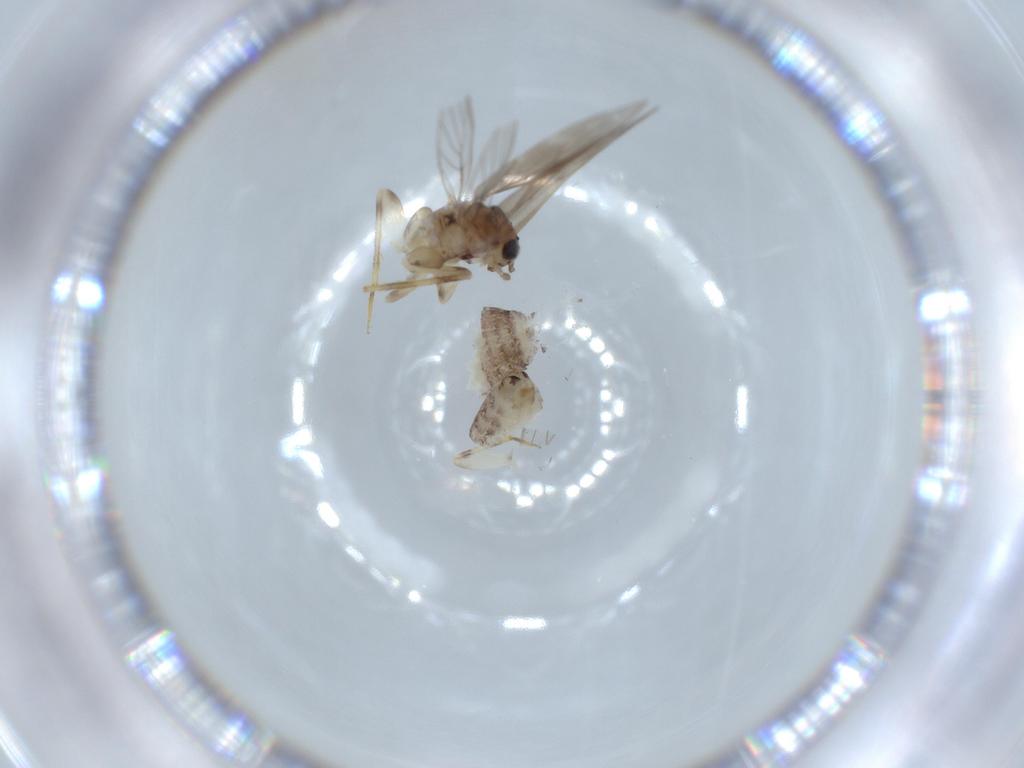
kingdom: Animalia
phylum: Arthropoda
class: Insecta
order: Psocodea
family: Lepidopsocidae
